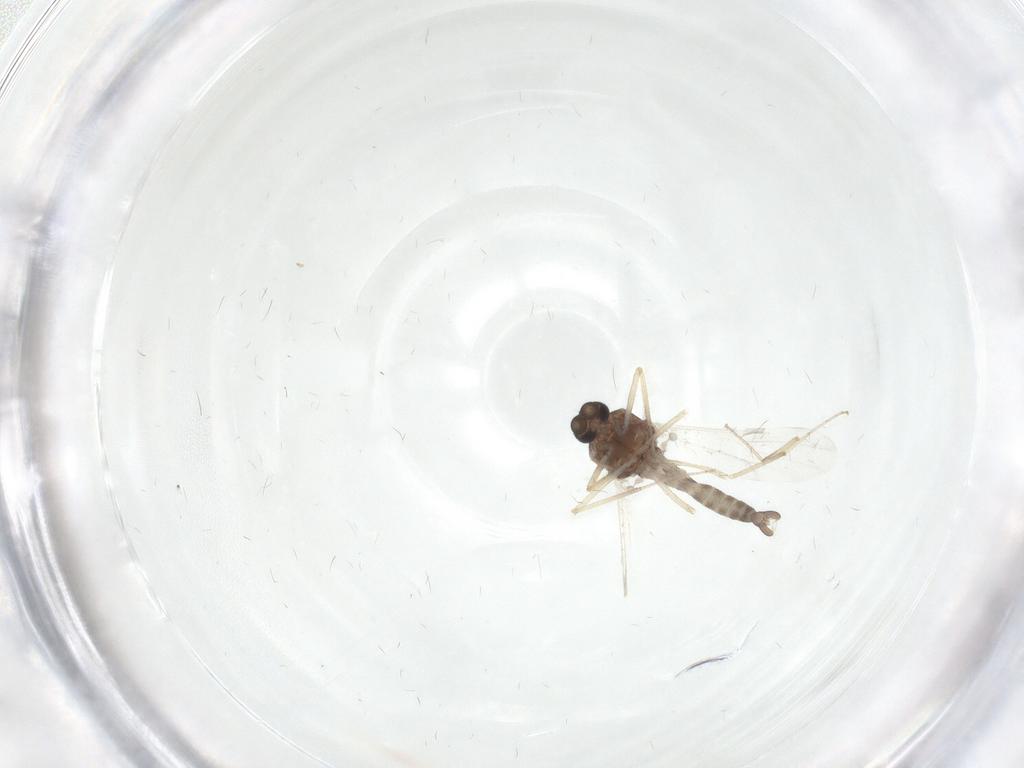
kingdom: Animalia
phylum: Arthropoda
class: Insecta
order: Diptera
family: Ceratopogonidae
